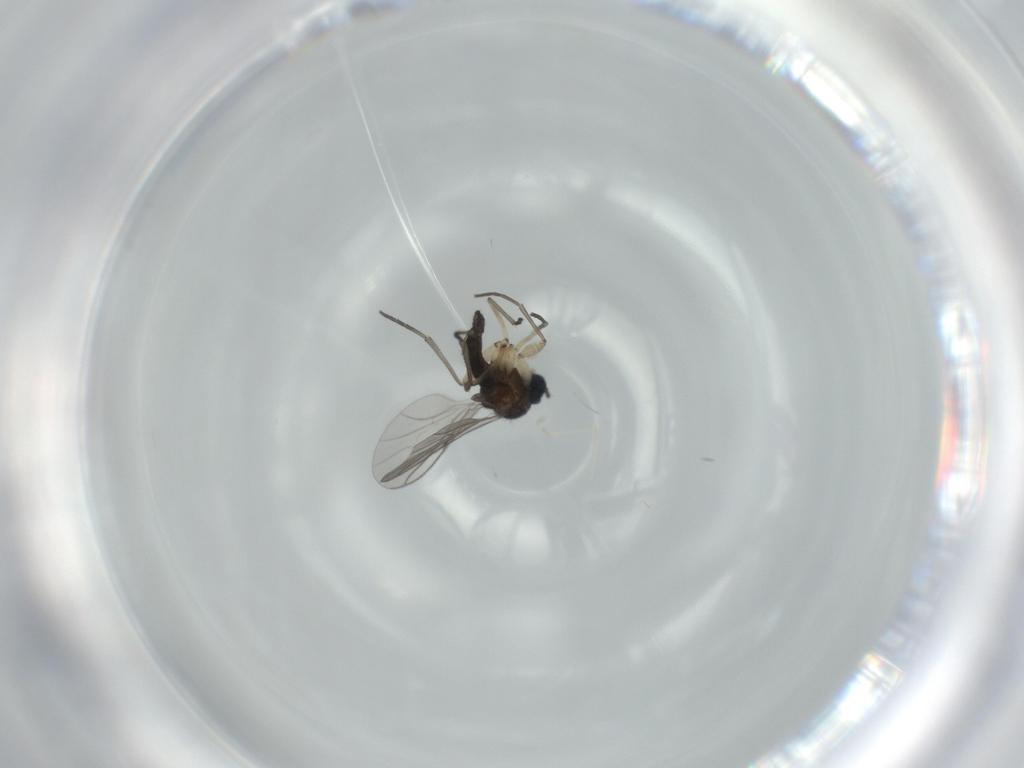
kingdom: Animalia
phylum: Arthropoda
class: Insecta
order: Diptera
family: Sciaridae
